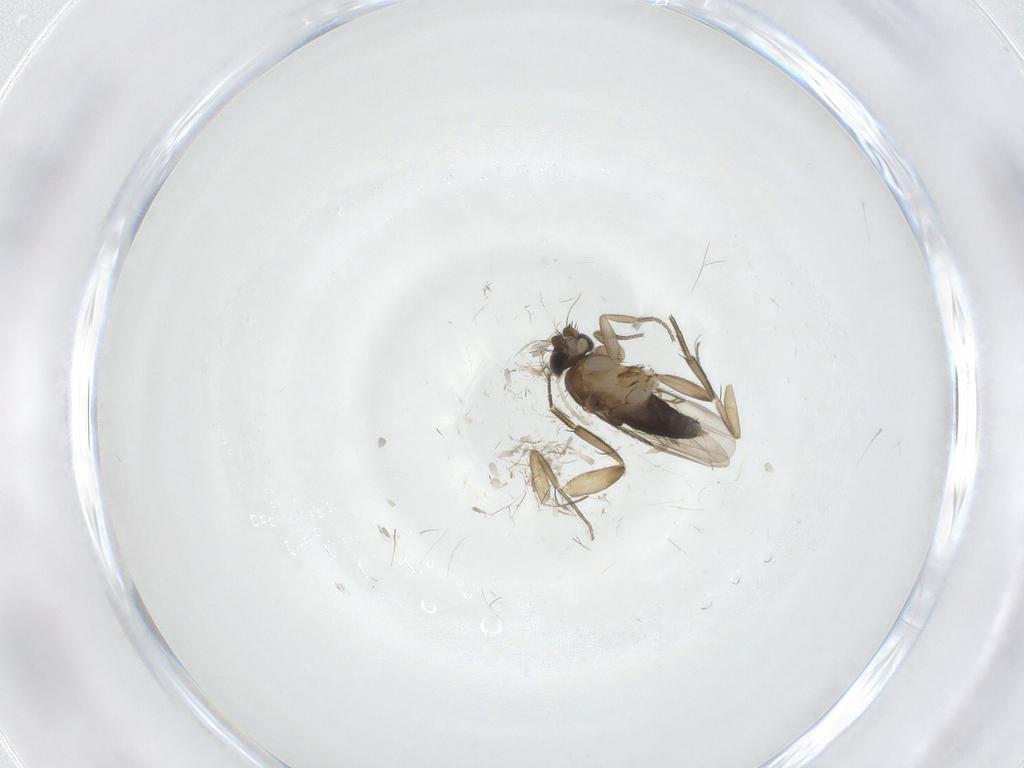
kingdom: Animalia
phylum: Arthropoda
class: Insecta
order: Diptera
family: Phoridae
